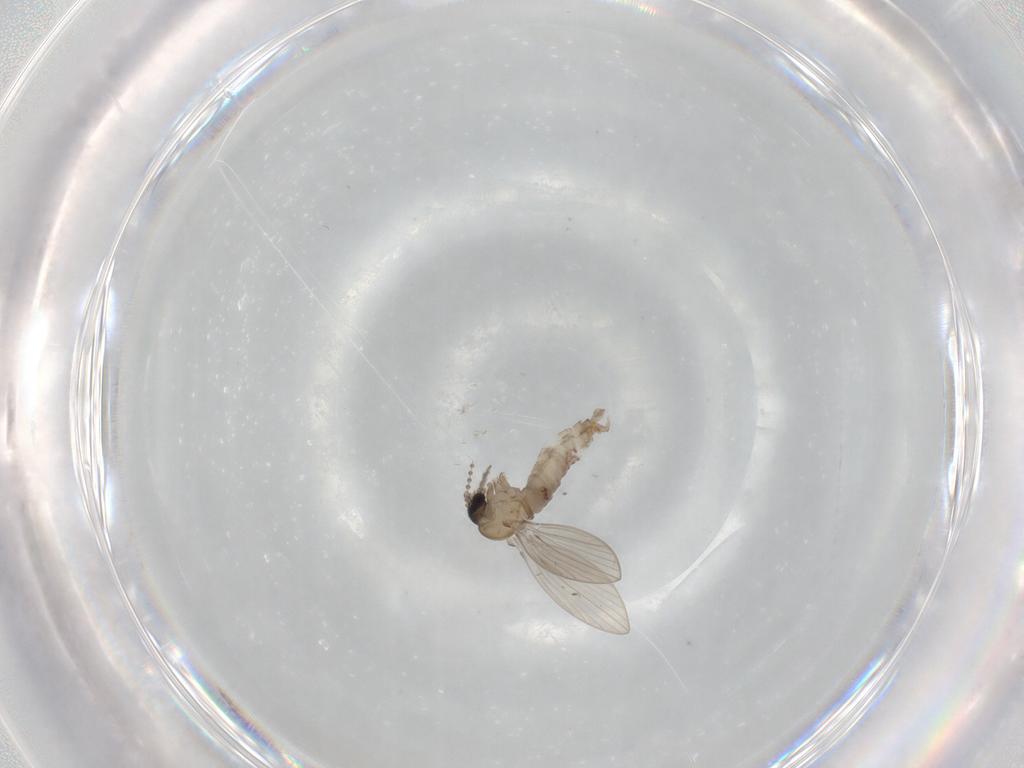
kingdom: Animalia
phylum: Arthropoda
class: Insecta
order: Diptera
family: Psychodidae
